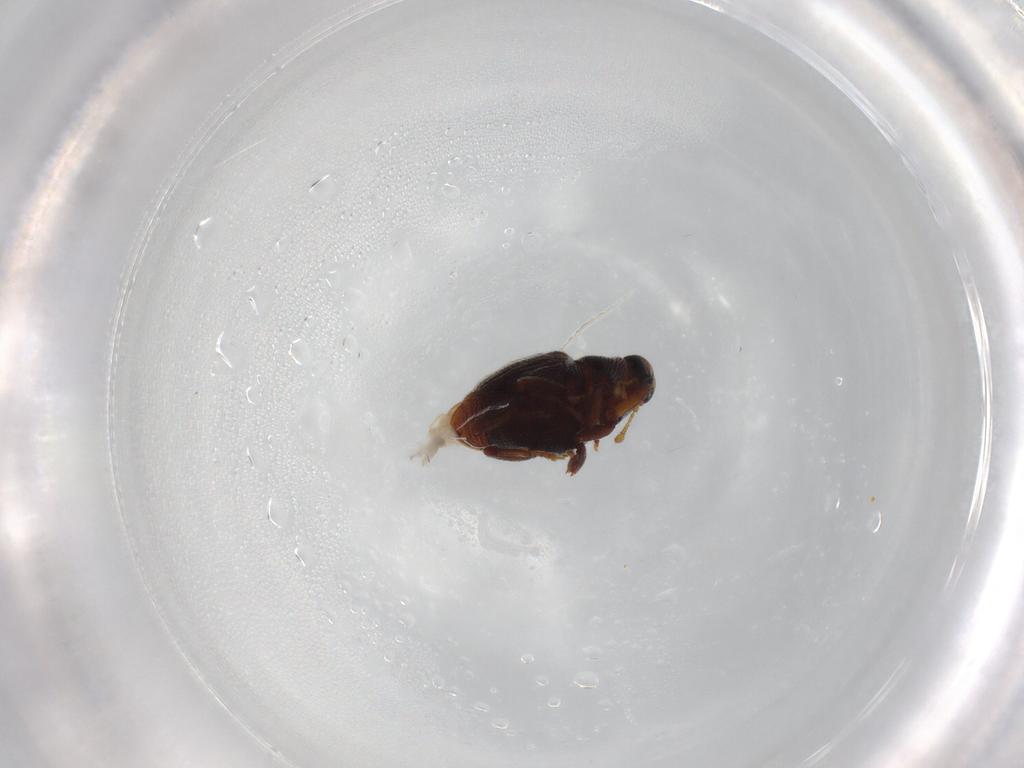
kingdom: Animalia
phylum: Arthropoda
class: Insecta
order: Coleoptera
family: Curculionidae
